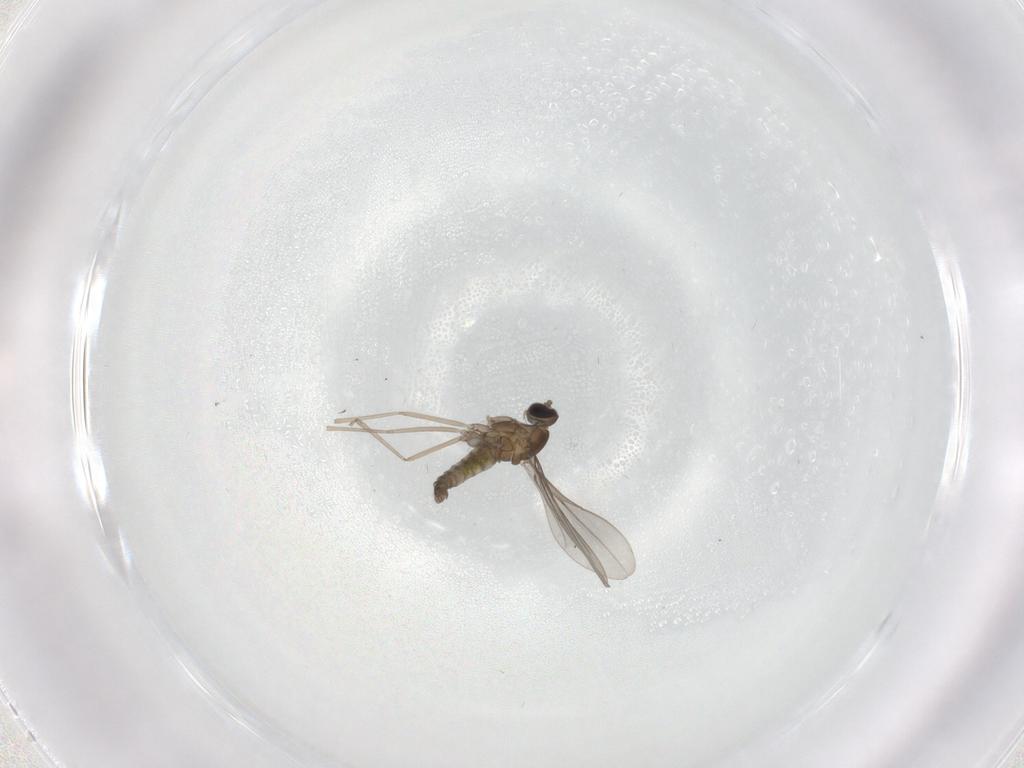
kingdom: Animalia
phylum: Arthropoda
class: Insecta
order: Diptera
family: Cecidomyiidae
